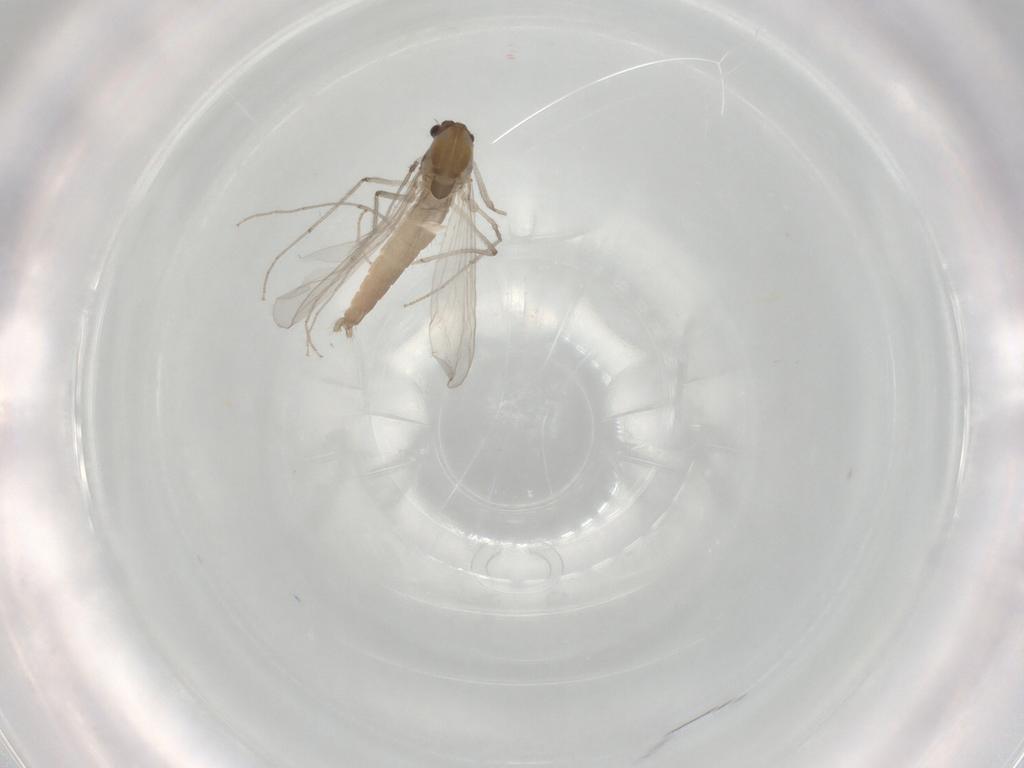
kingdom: Animalia
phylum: Arthropoda
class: Insecta
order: Diptera
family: Chironomidae
